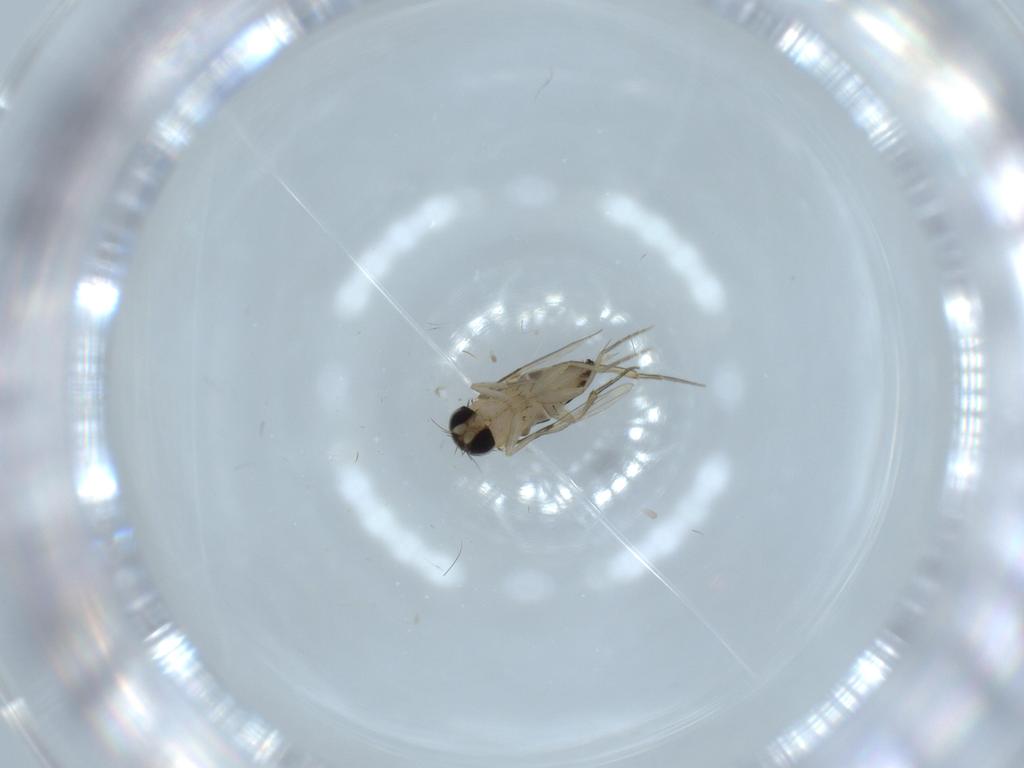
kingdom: Animalia
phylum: Arthropoda
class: Insecta
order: Diptera
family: Phoridae
